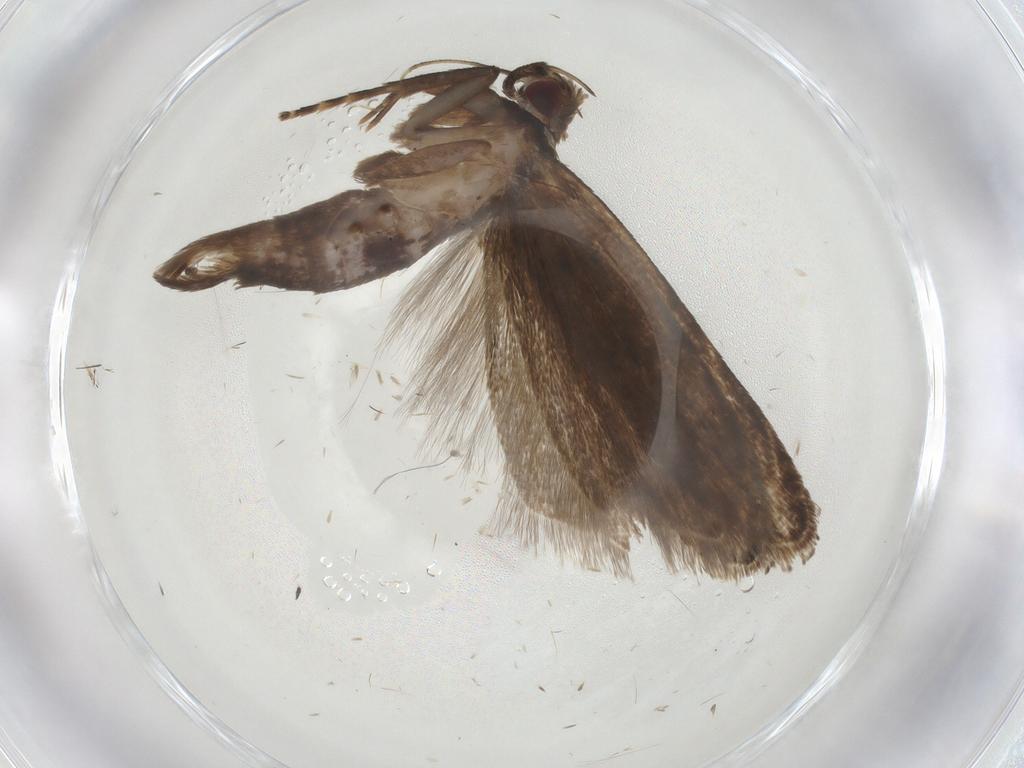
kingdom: Animalia
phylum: Arthropoda
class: Insecta
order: Lepidoptera
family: Gelechiidae
